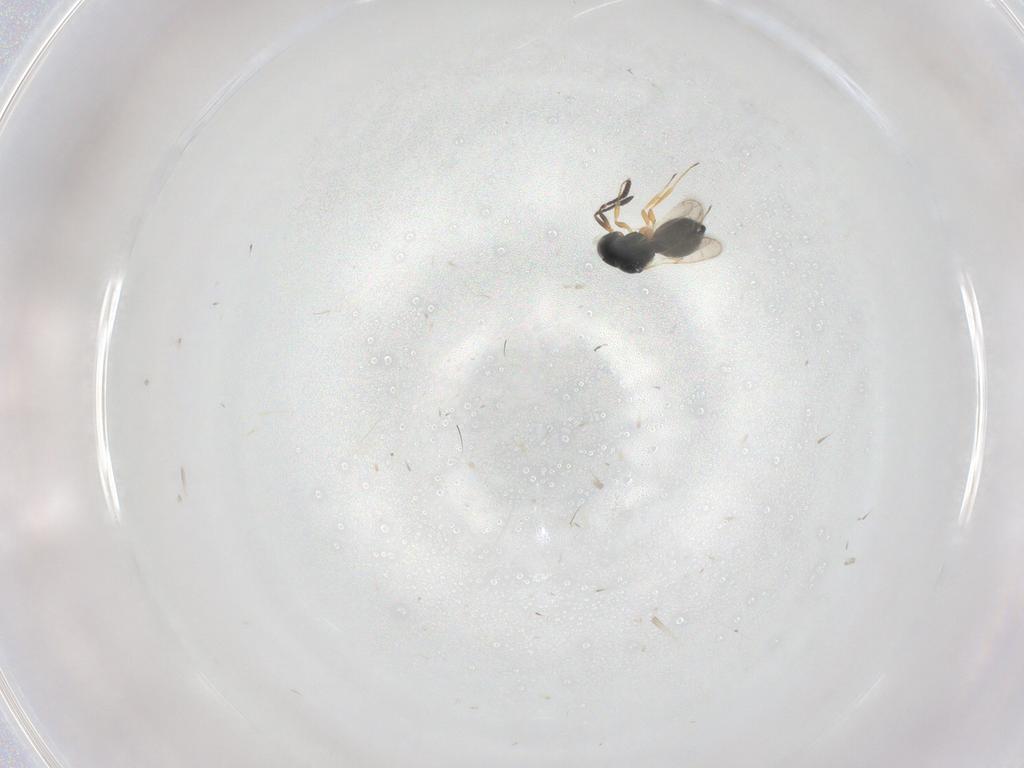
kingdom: Animalia
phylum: Arthropoda
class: Insecta
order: Hymenoptera
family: Scelionidae
